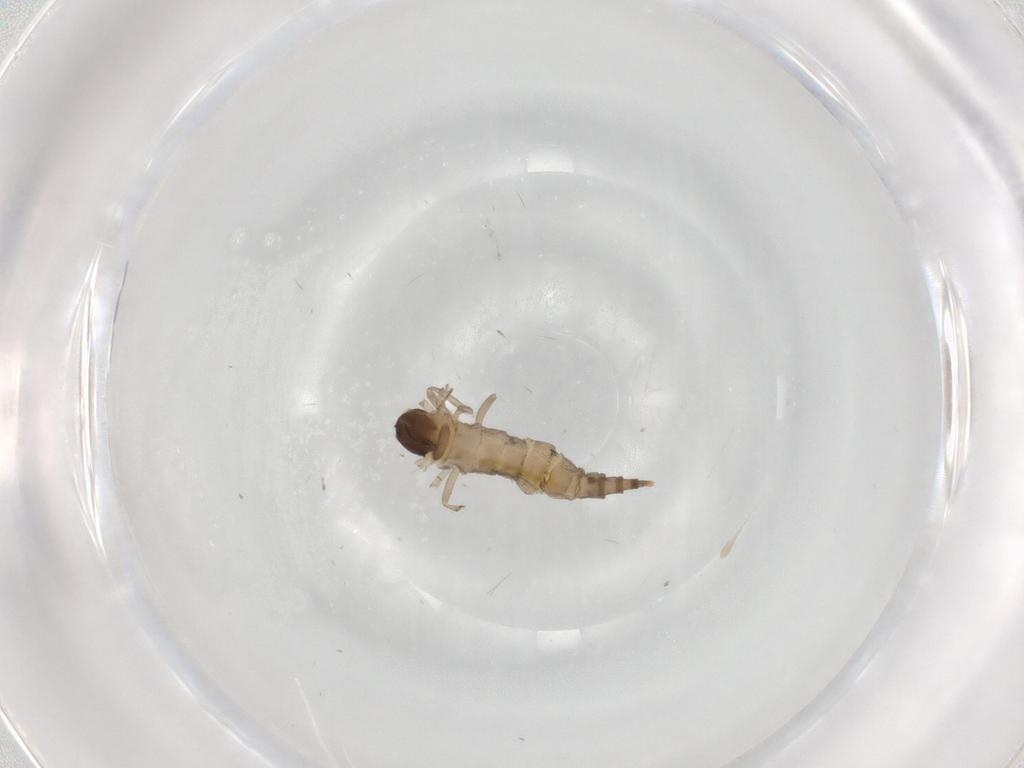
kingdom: Animalia
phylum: Arthropoda
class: Insecta
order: Diptera
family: Cecidomyiidae
